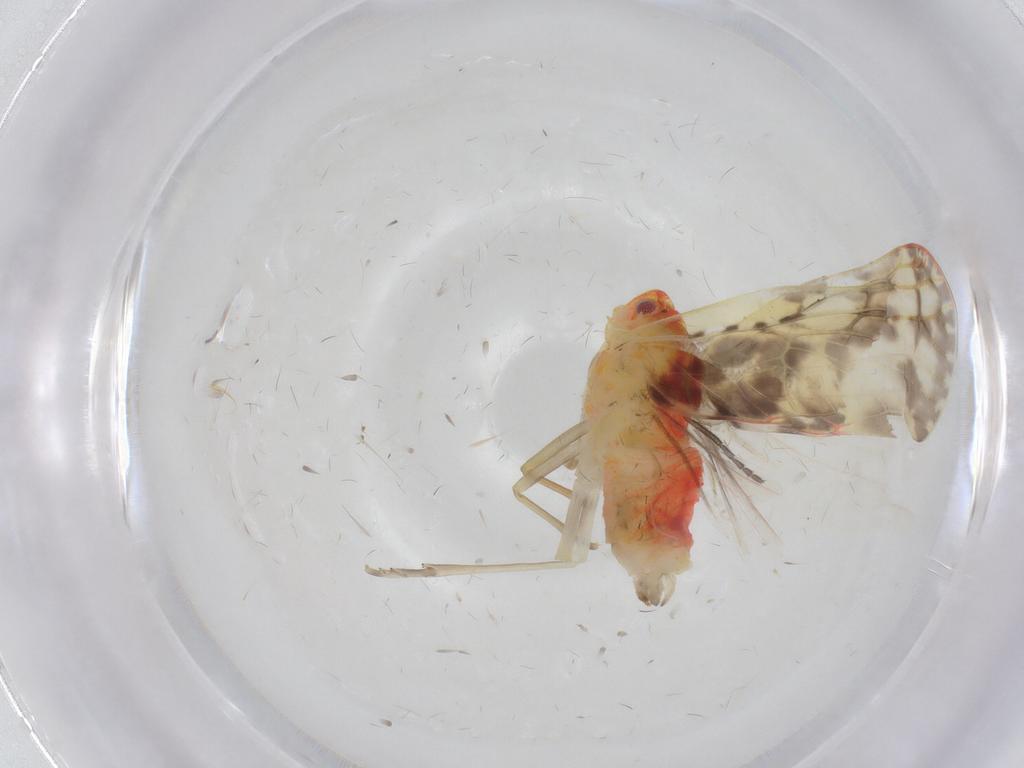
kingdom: Animalia
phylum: Arthropoda
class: Insecta
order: Hemiptera
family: Derbidae
